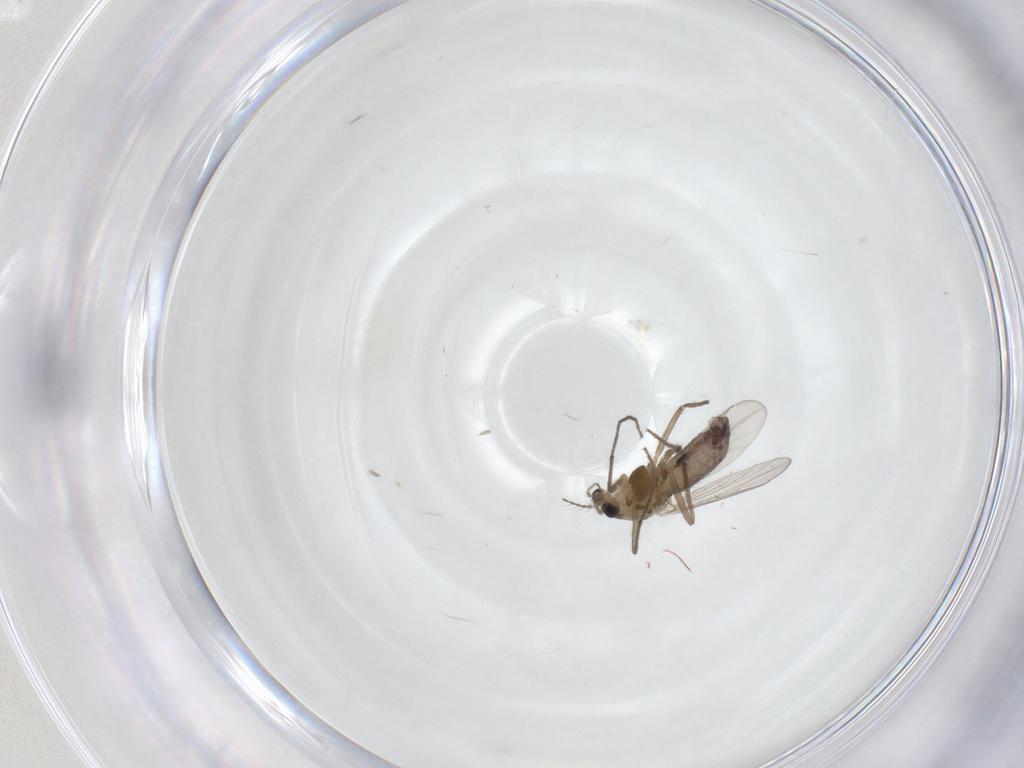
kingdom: Animalia
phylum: Arthropoda
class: Insecta
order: Diptera
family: Chironomidae
